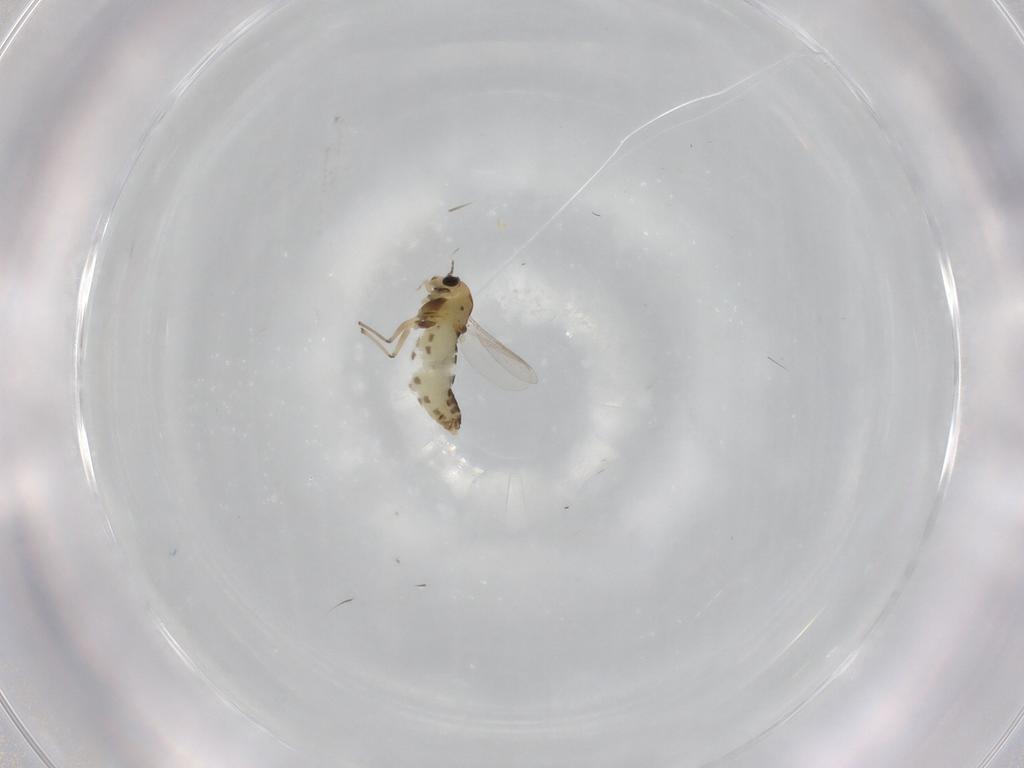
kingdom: Animalia
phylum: Arthropoda
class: Insecta
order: Diptera
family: Chironomidae
